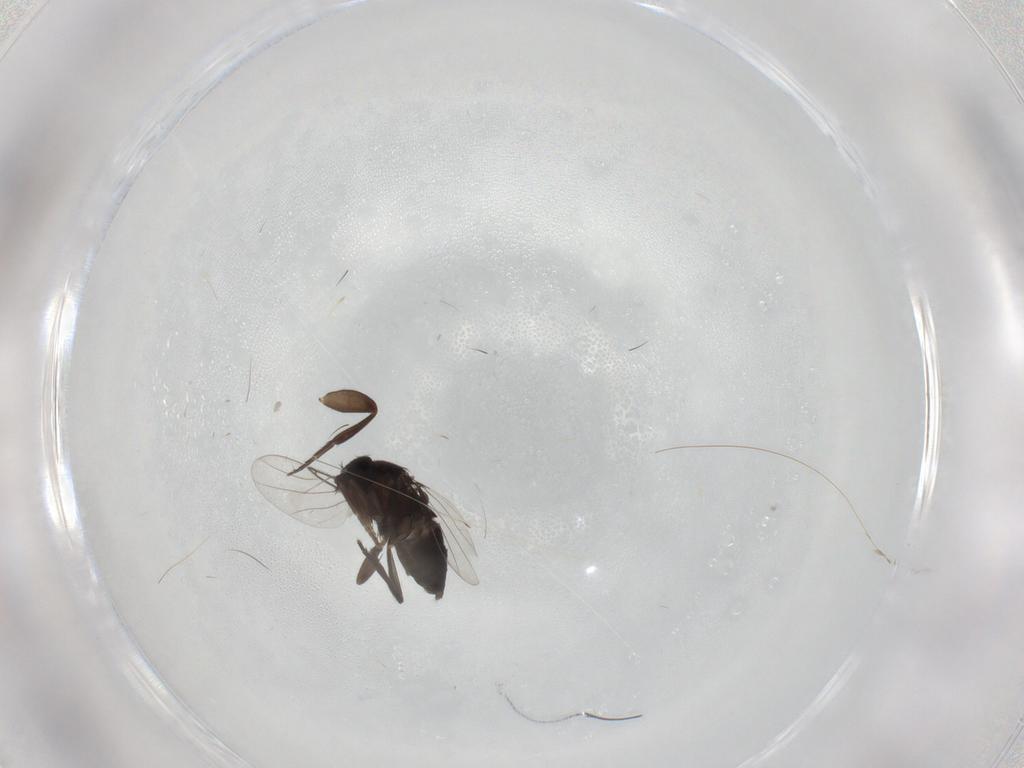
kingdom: Animalia
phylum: Arthropoda
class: Insecta
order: Diptera
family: Phoridae
